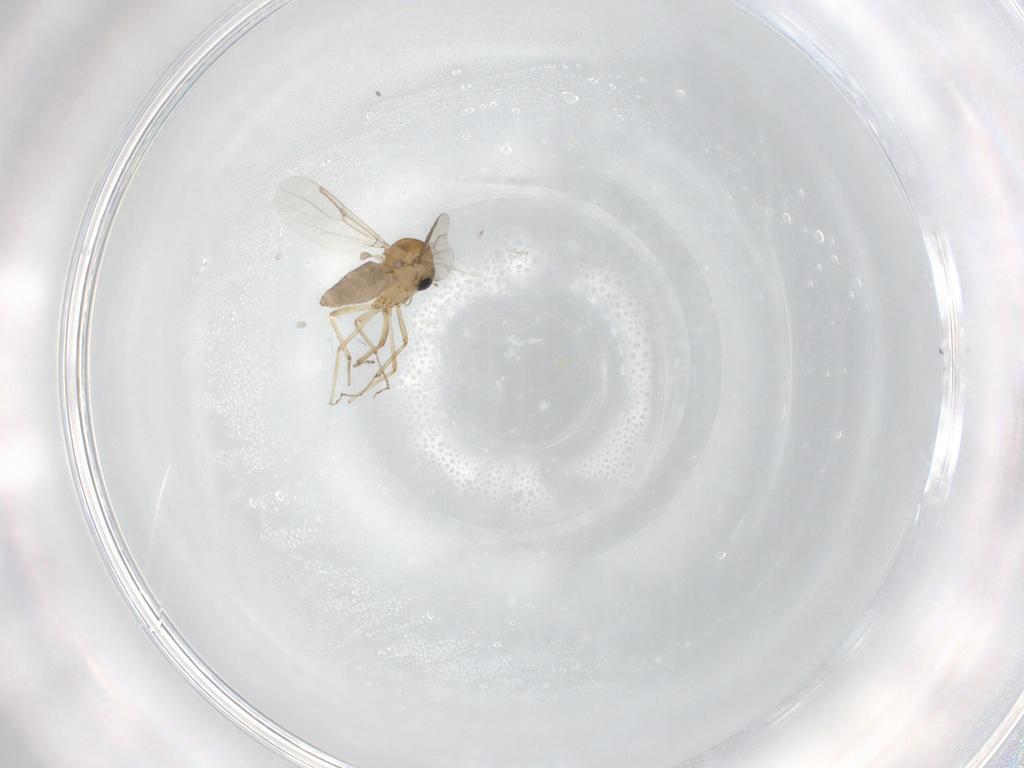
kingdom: Animalia
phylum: Arthropoda
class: Insecta
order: Diptera
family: Ceratopogonidae
